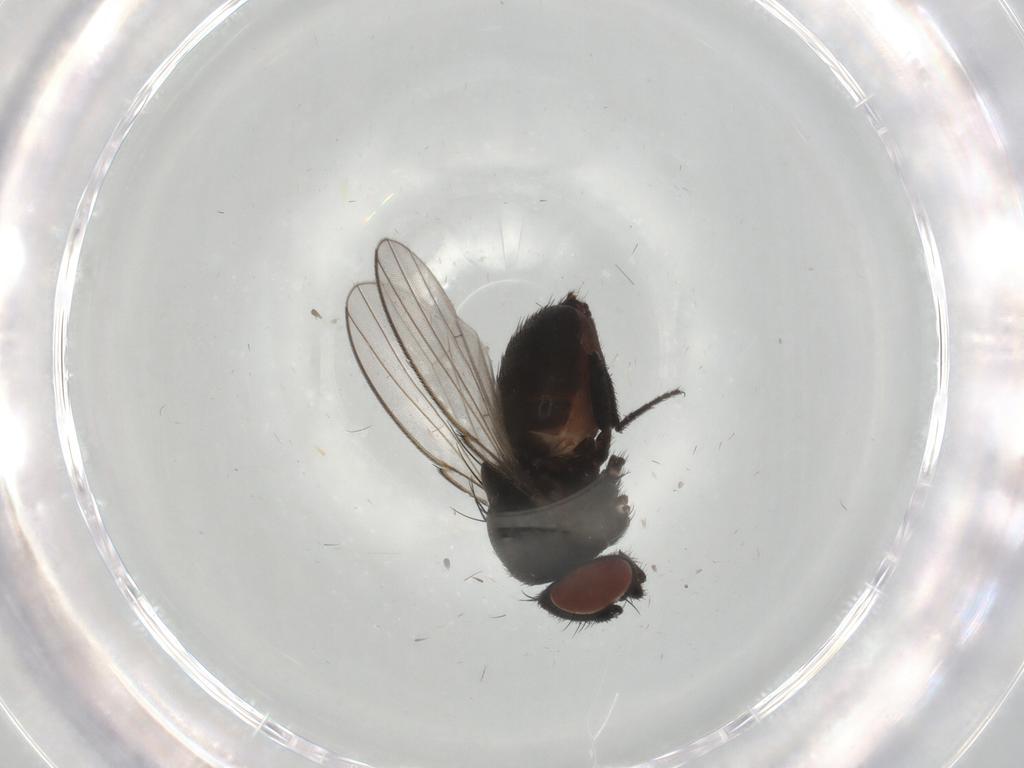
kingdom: Animalia
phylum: Arthropoda
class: Insecta
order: Diptera
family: Milichiidae
